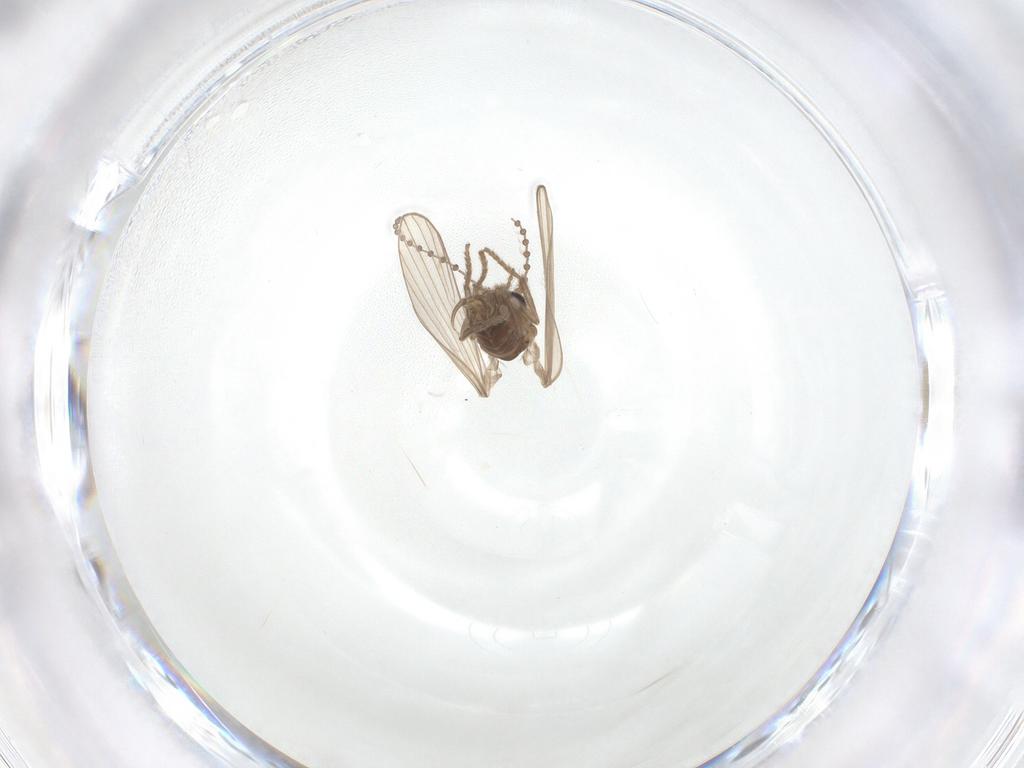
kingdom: Animalia
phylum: Arthropoda
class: Insecta
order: Diptera
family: Psychodidae
